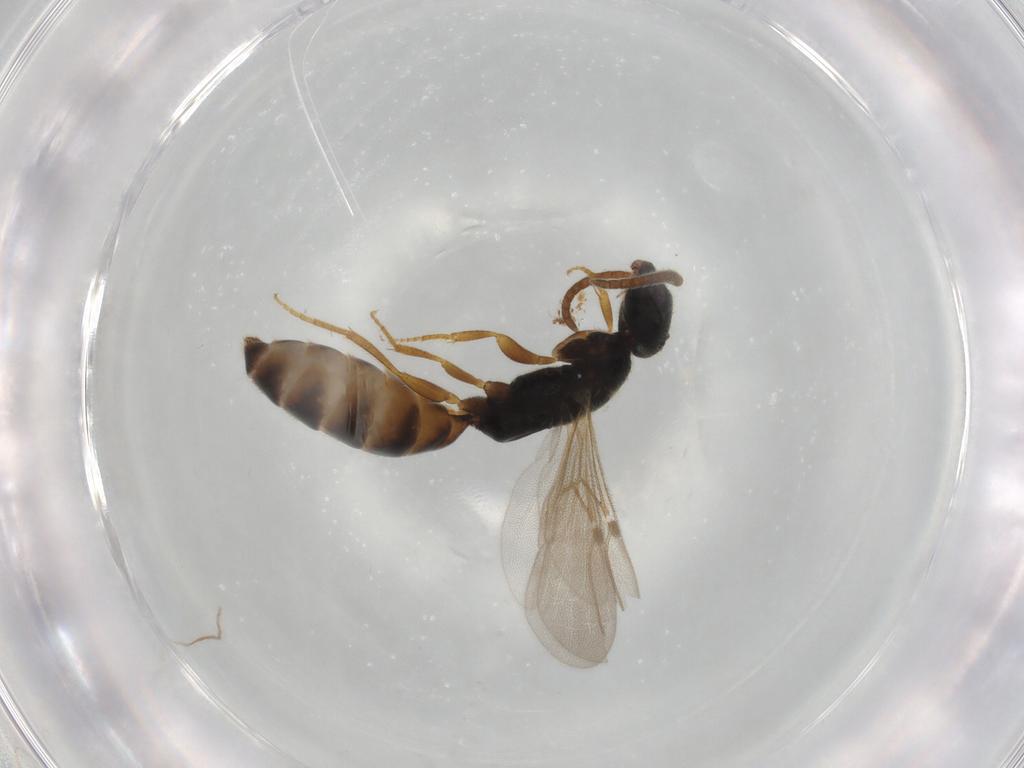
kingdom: Animalia
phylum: Arthropoda
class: Insecta
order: Hymenoptera
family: Bethylidae
